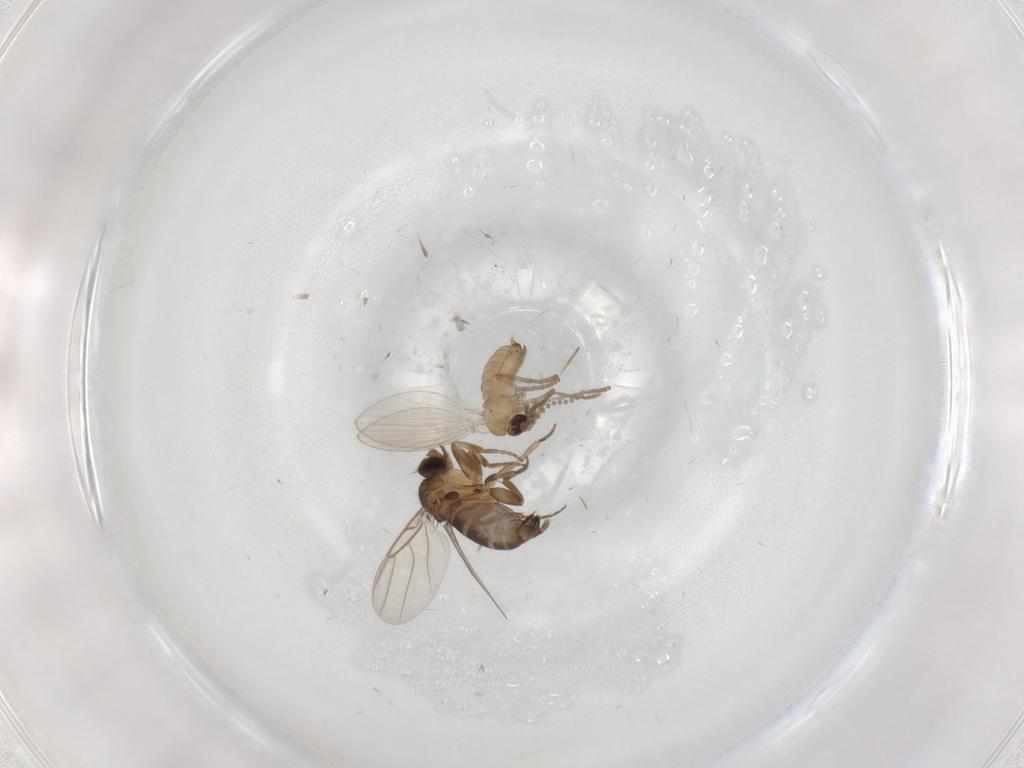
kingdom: Animalia
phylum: Arthropoda
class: Insecta
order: Diptera
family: Phoridae
